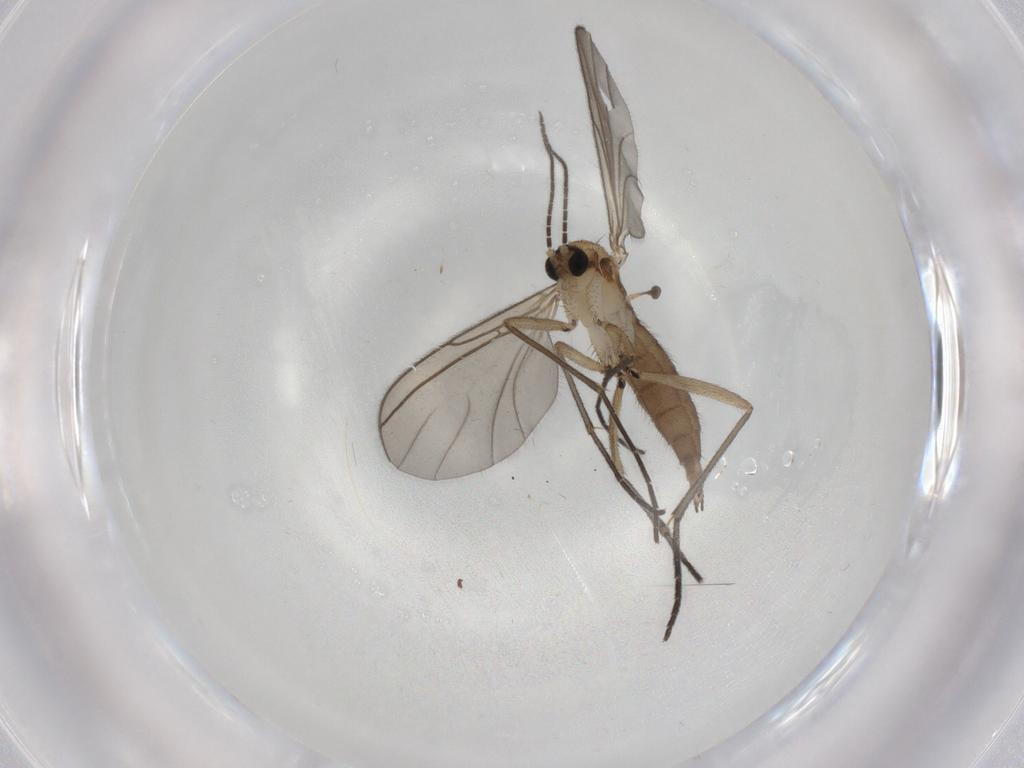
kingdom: Animalia
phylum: Arthropoda
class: Insecta
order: Diptera
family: Sciaridae
